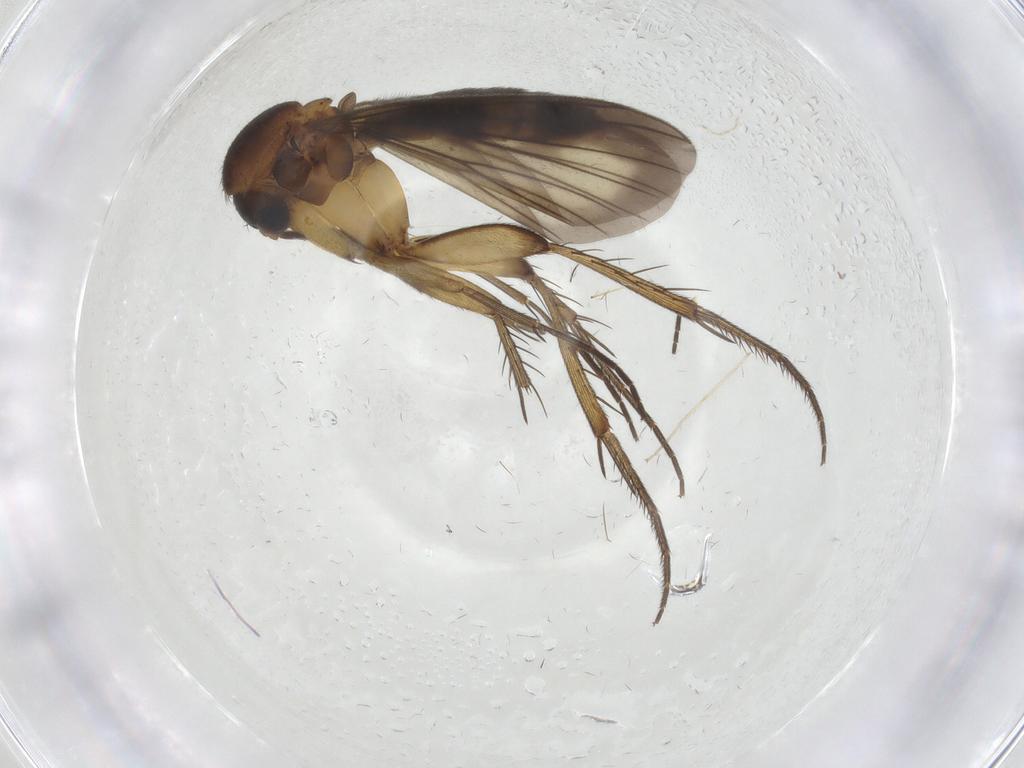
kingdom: Animalia
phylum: Arthropoda
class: Insecta
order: Diptera
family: Mycetophilidae
